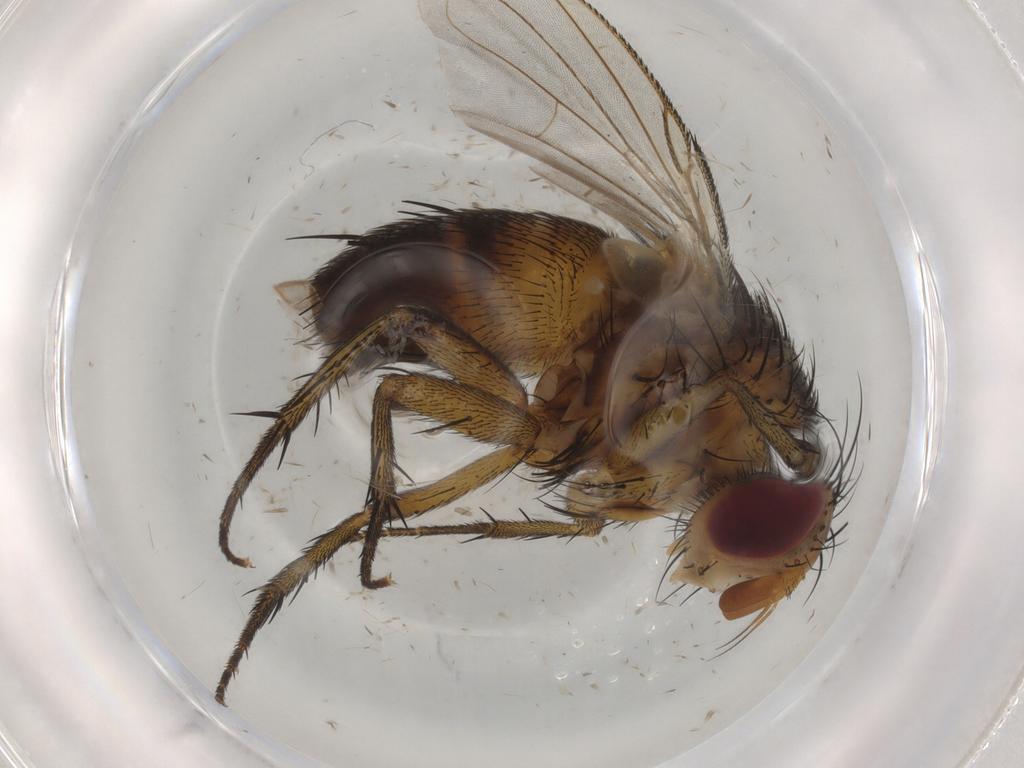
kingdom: Animalia
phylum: Arthropoda
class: Insecta
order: Diptera
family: Tachinidae
